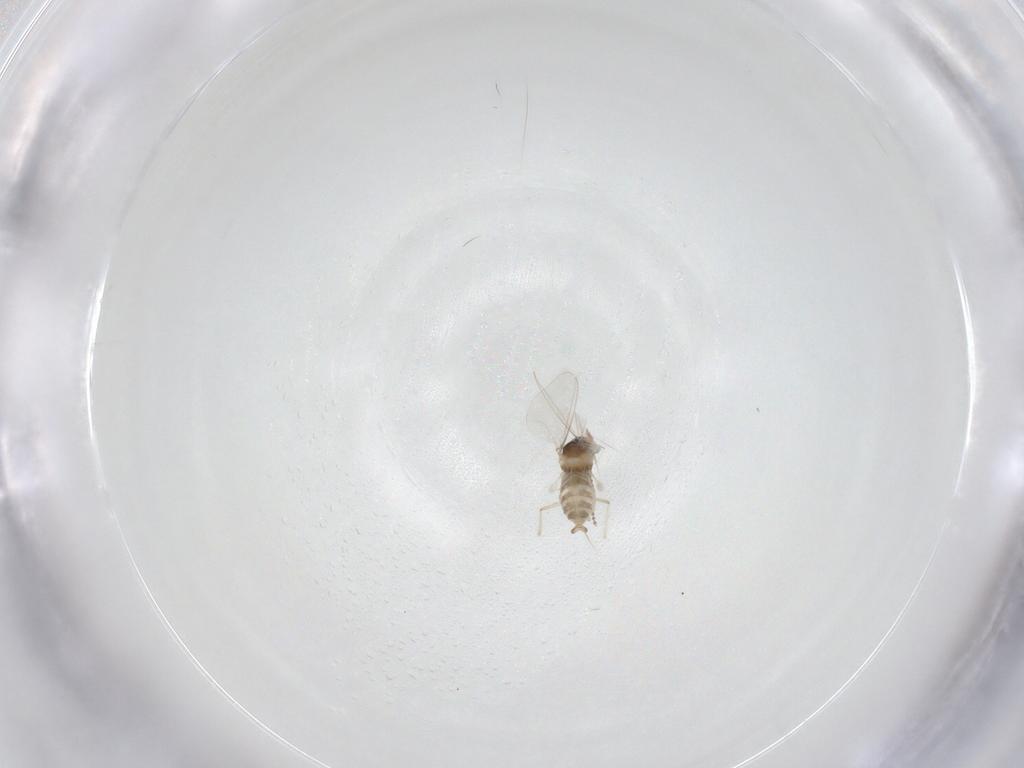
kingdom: Animalia
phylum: Arthropoda
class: Insecta
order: Diptera
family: Cecidomyiidae
